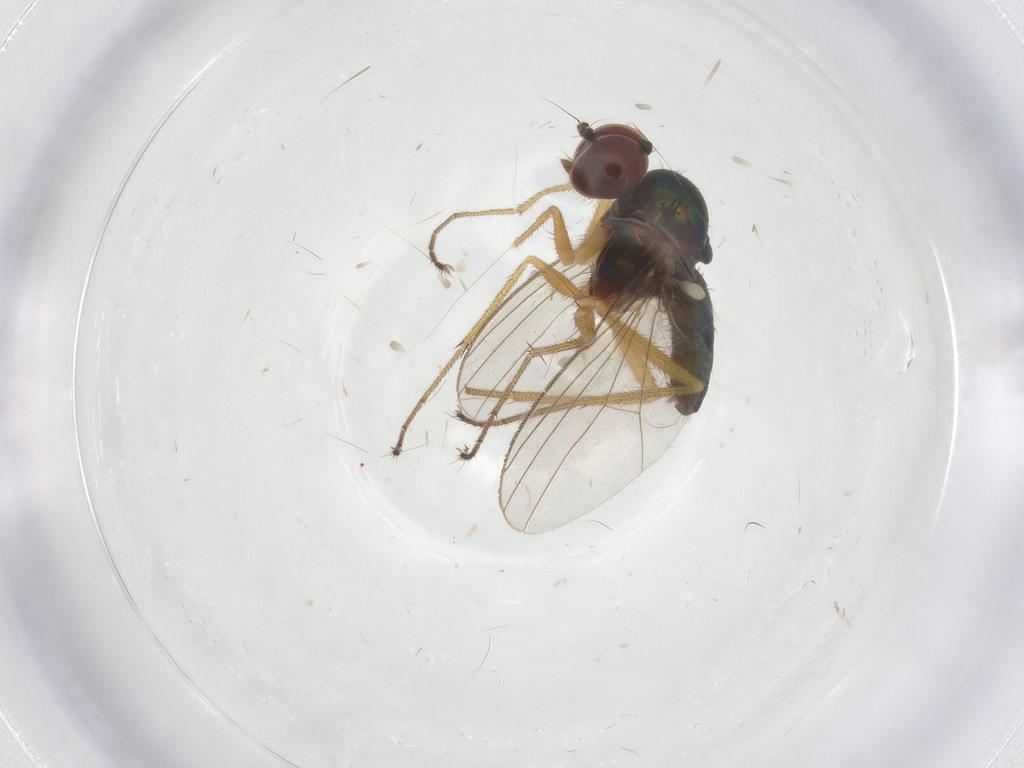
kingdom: Animalia
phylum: Arthropoda
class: Insecta
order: Diptera
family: Dolichopodidae
